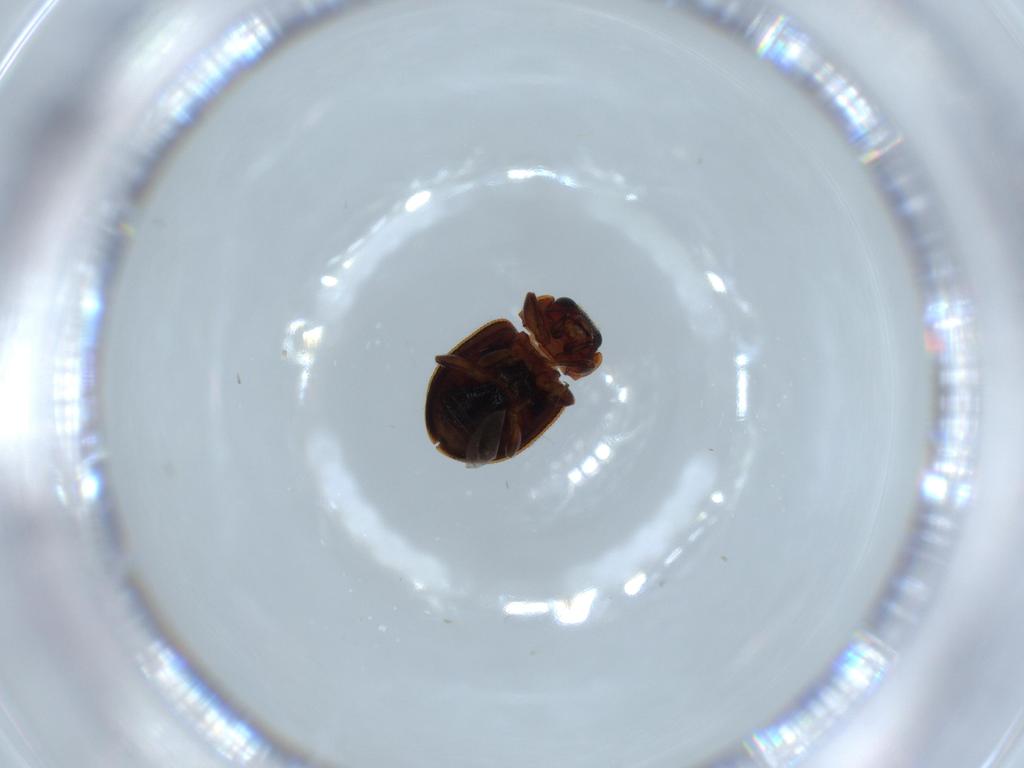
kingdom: Animalia
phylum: Arthropoda
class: Insecta
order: Coleoptera
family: Coccinellidae
